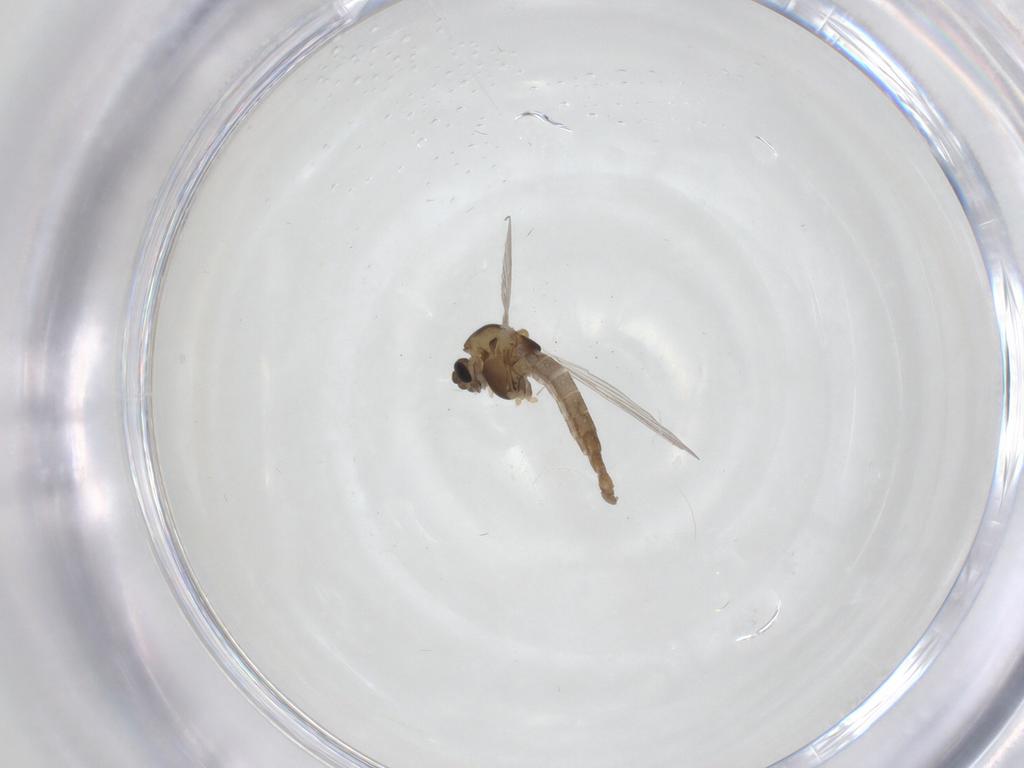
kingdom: Animalia
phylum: Arthropoda
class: Insecta
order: Diptera
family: Chironomidae
